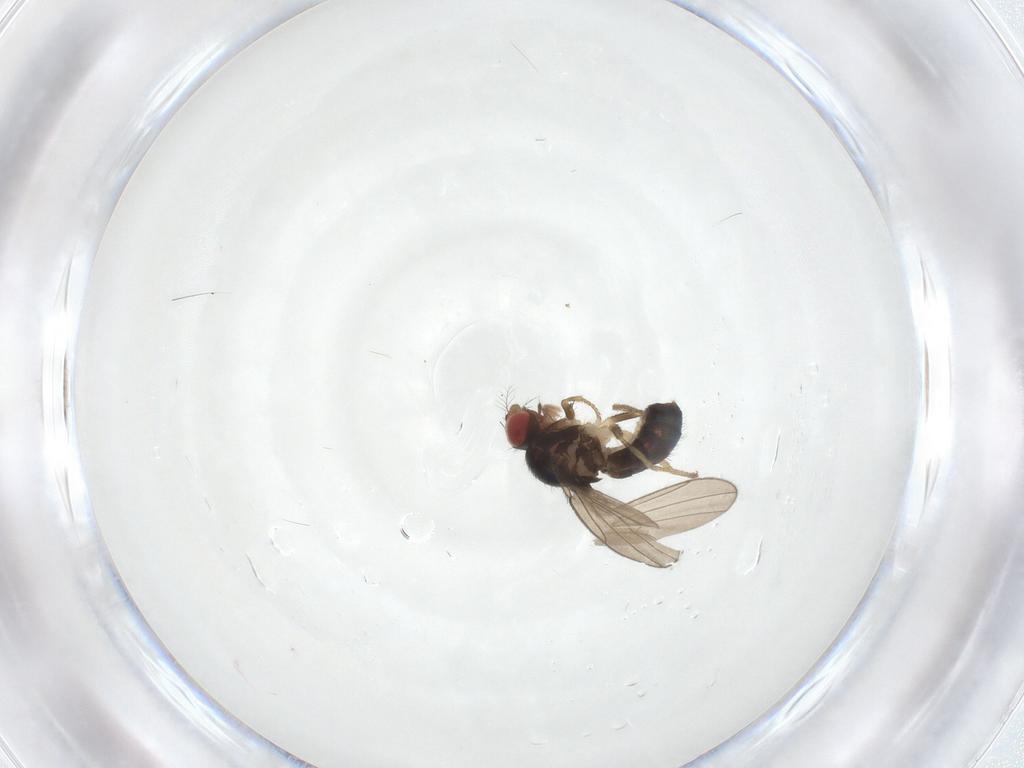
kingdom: Animalia
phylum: Arthropoda
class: Insecta
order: Diptera
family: Drosophilidae
